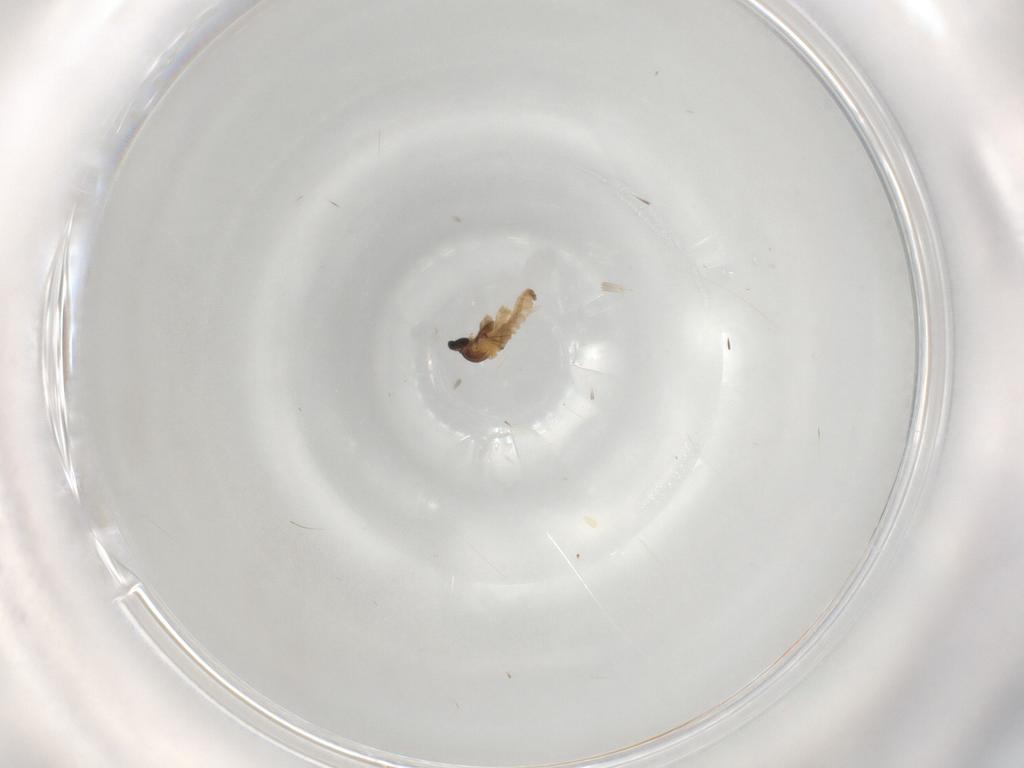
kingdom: Animalia
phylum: Arthropoda
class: Insecta
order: Diptera
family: Cecidomyiidae
